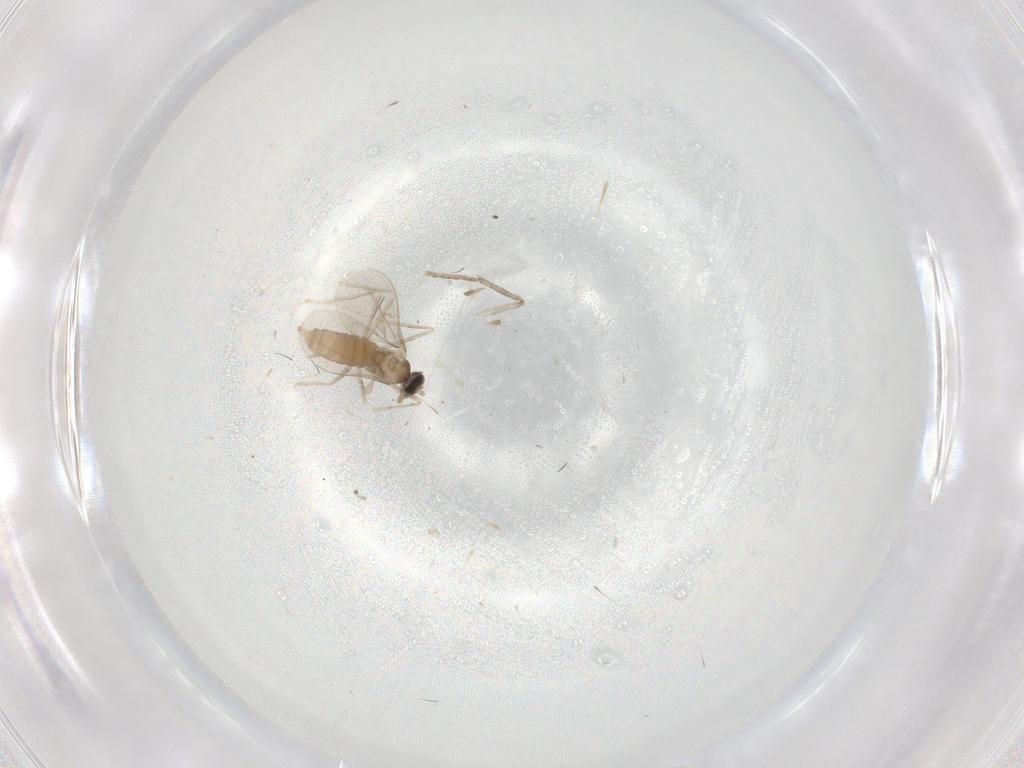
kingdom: Animalia
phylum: Arthropoda
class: Insecta
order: Diptera
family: Cecidomyiidae
